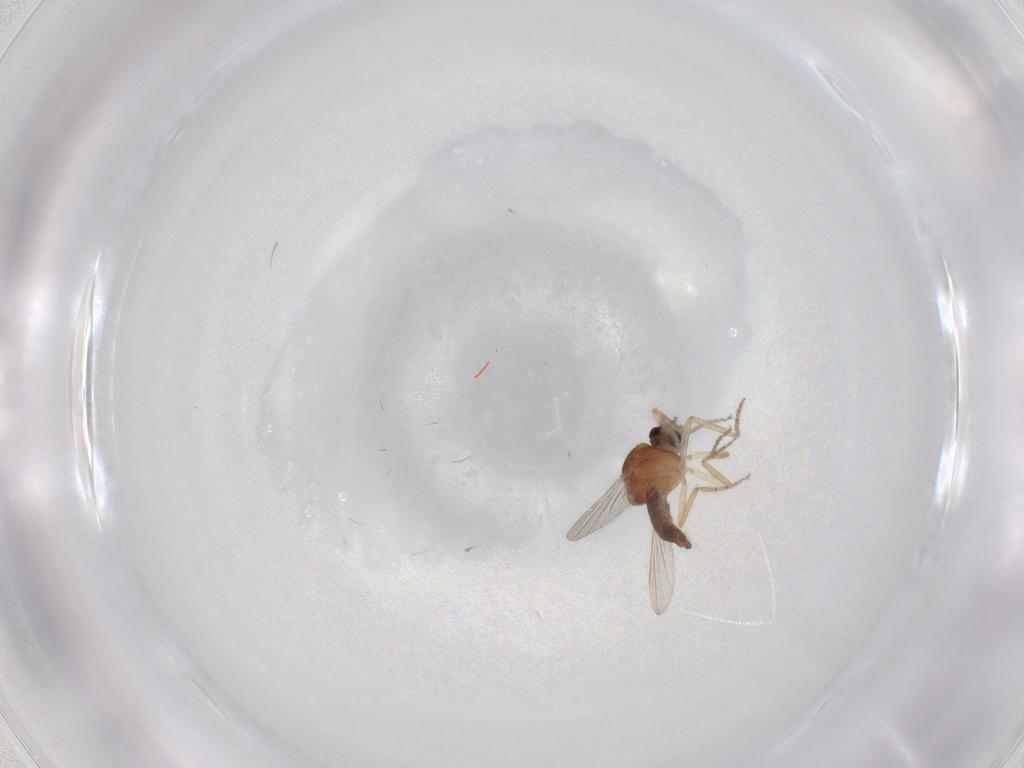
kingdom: Animalia
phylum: Arthropoda
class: Insecta
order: Diptera
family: Ceratopogonidae
